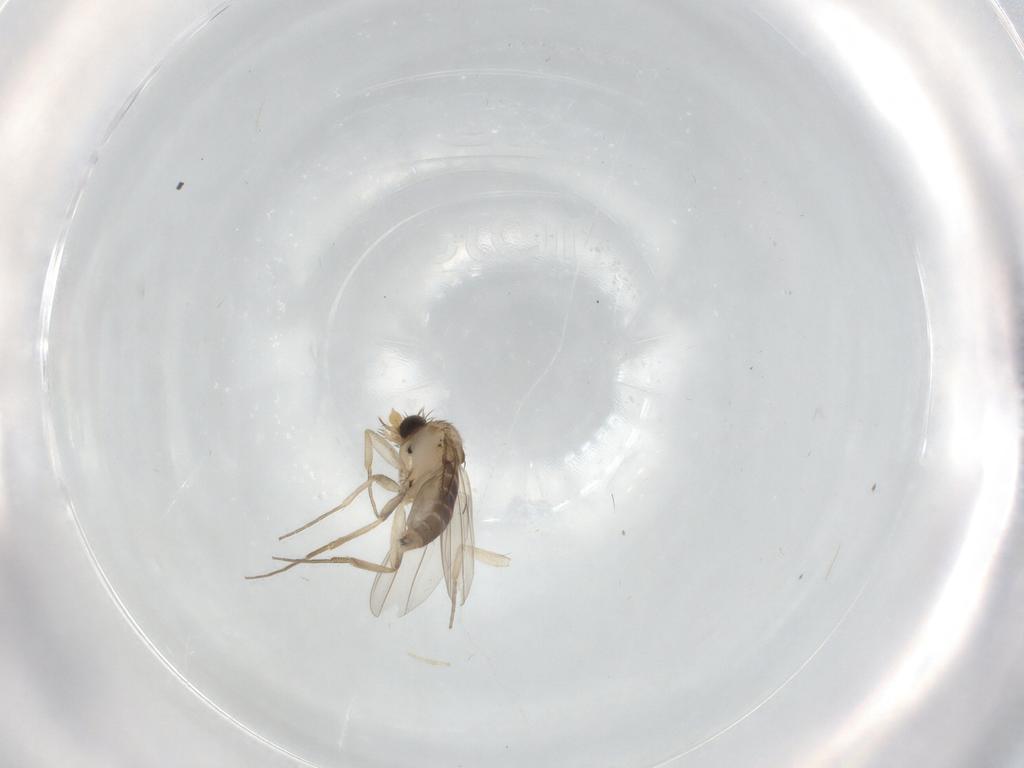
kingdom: Animalia
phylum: Arthropoda
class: Insecta
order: Diptera
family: Phoridae
